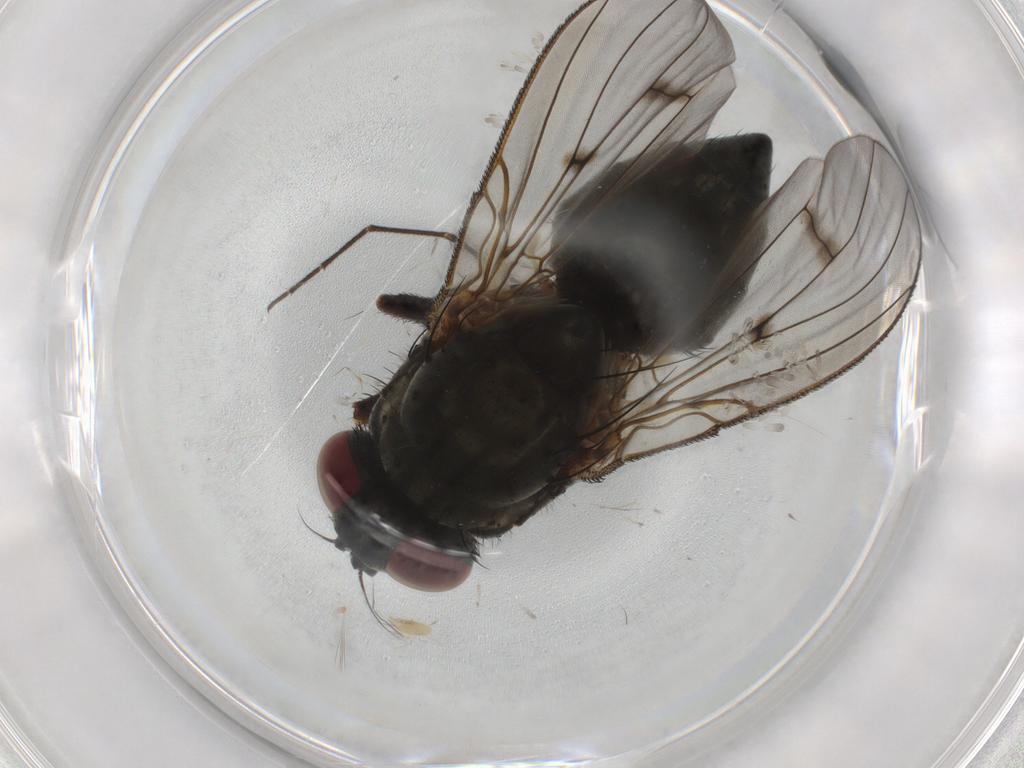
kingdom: Animalia
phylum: Arthropoda
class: Insecta
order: Diptera
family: Muscidae
